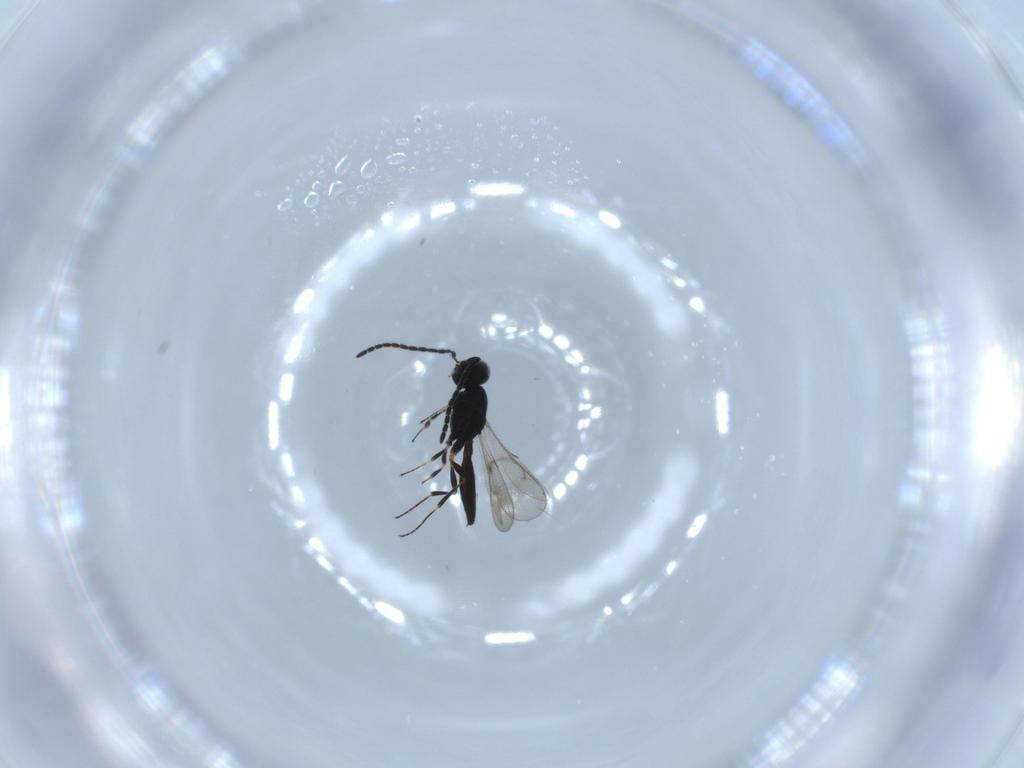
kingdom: Animalia
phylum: Arthropoda
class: Insecta
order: Hymenoptera
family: Scelionidae
